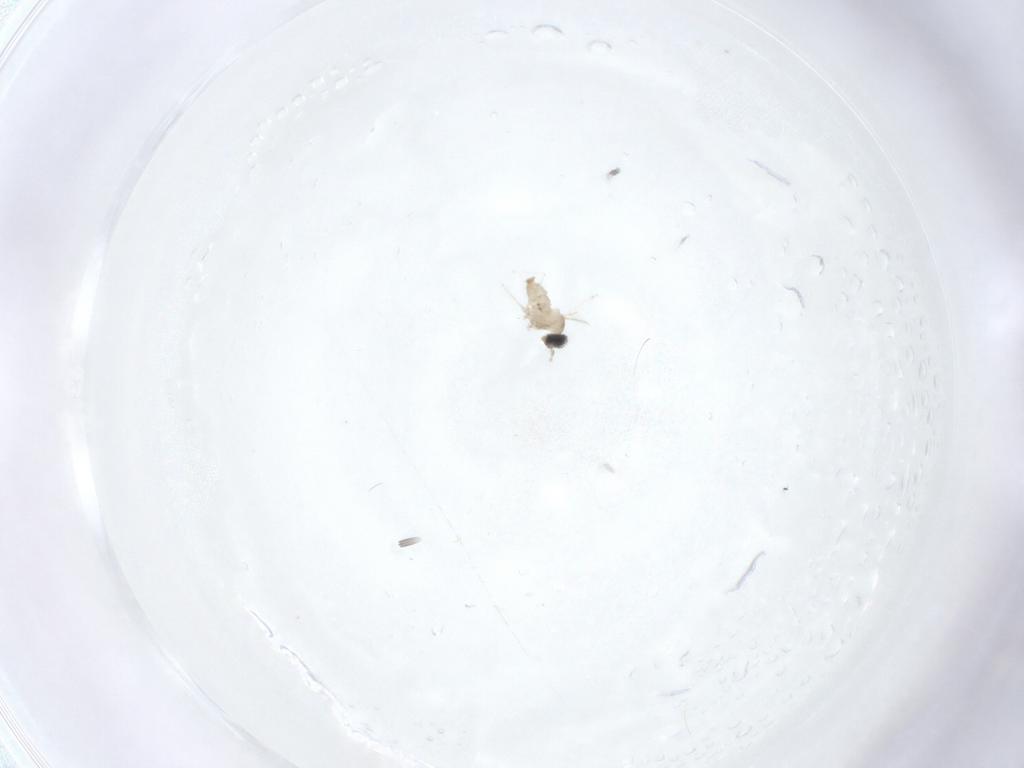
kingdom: Animalia
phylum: Arthropoda
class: Insecta
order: Diptera
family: Cecidomyiidae
